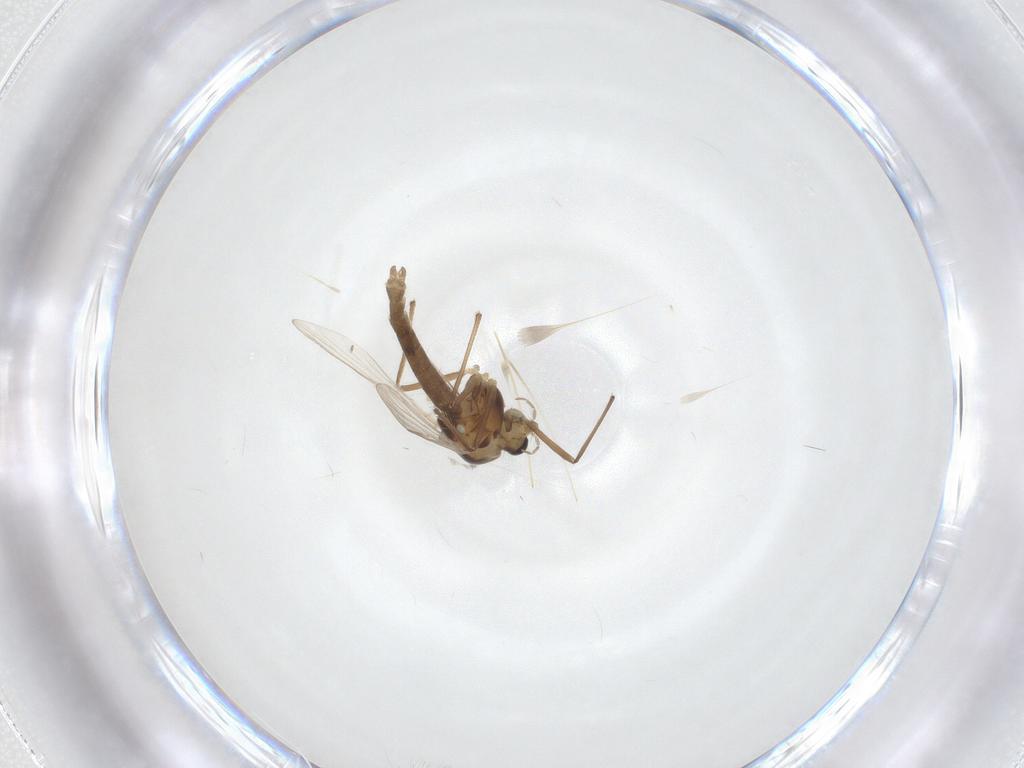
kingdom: Animalia
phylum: Arthropoda
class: Insecta
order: Diptera
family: Chironomidae
